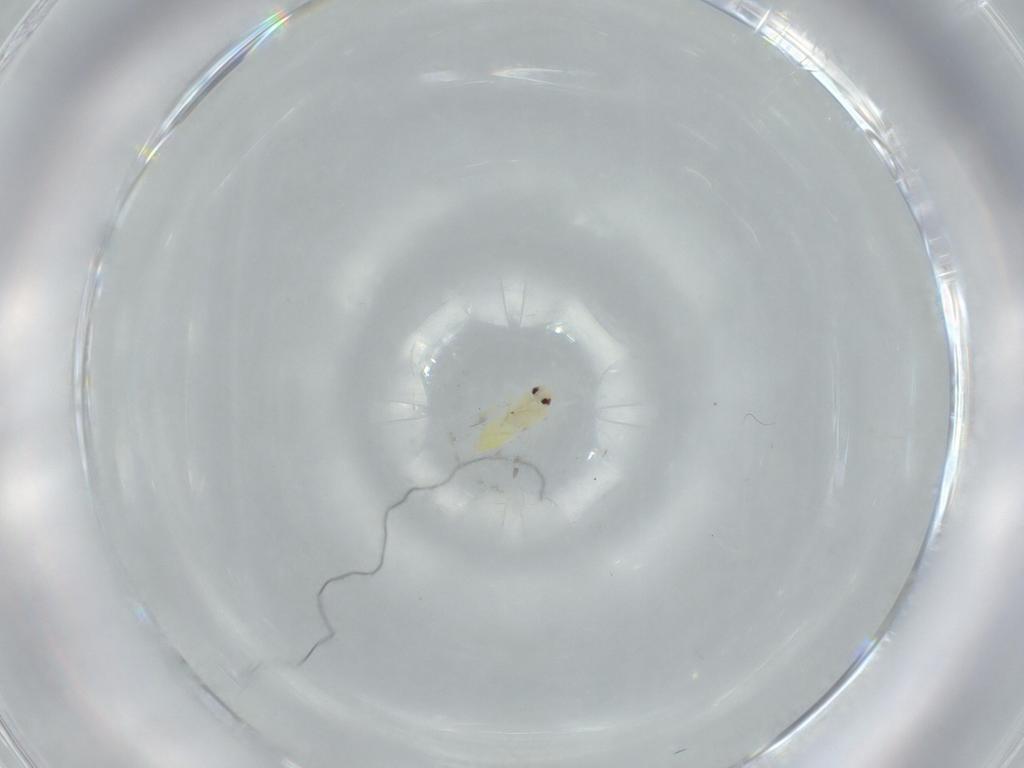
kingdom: Animalia
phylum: Arthropoda
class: Insecta
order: Hemiptera
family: Aleyrodidae
